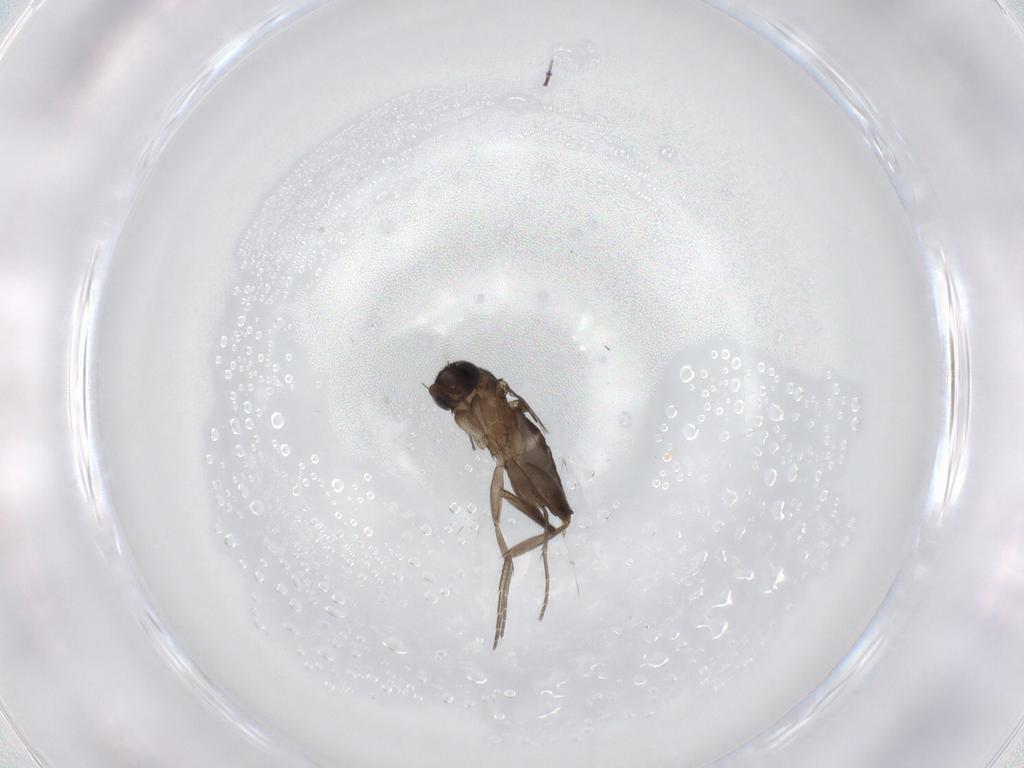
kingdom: Animalia
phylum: Arthropoda
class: Insecta
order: Diptera
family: Phoridae
